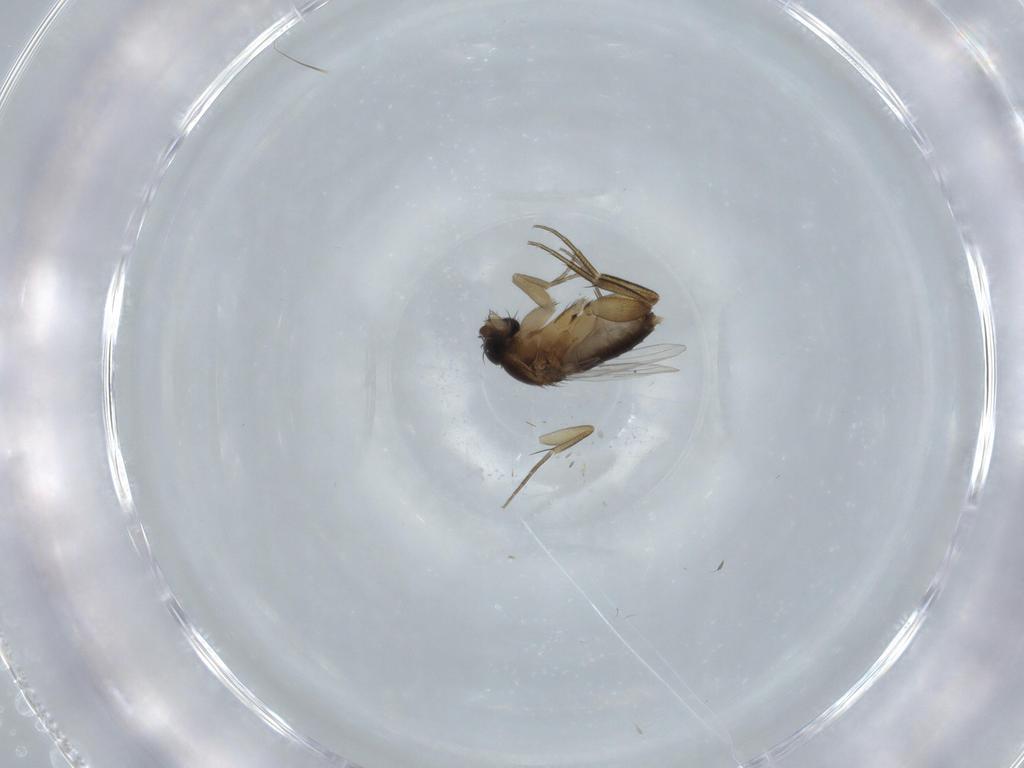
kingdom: Animalia
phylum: Arthropoda
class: Insecta
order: Diptera
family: Phoridae
